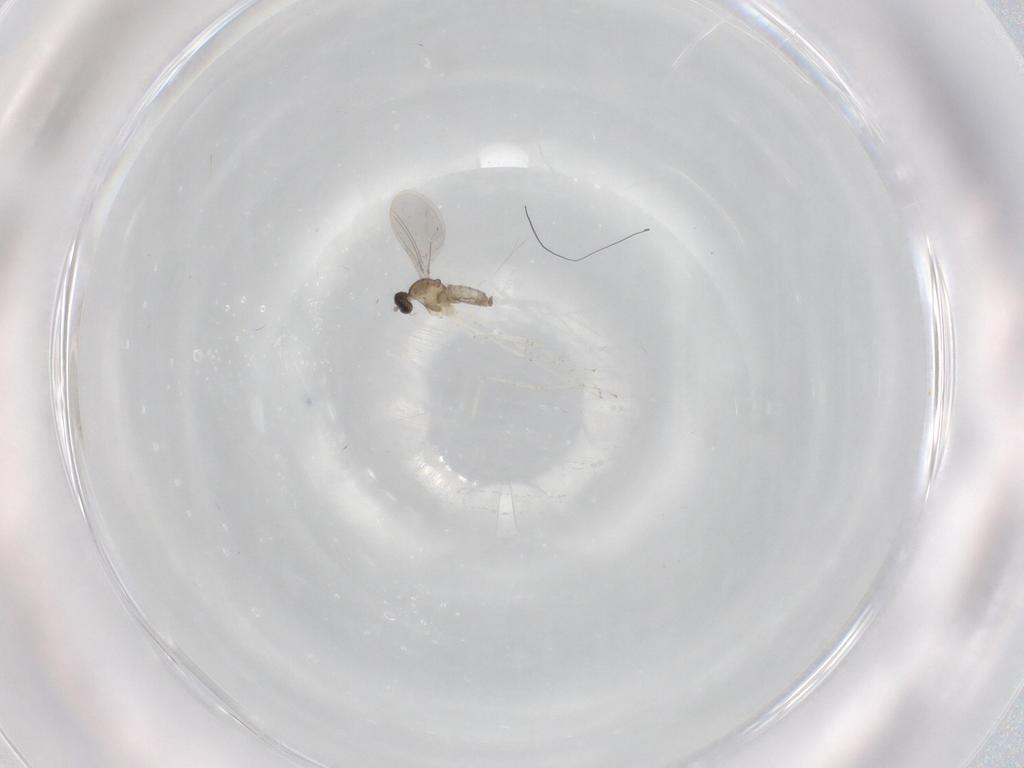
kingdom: Animalia
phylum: Arthropoda
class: Insecta
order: Diptera
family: Cecidomyiidae
